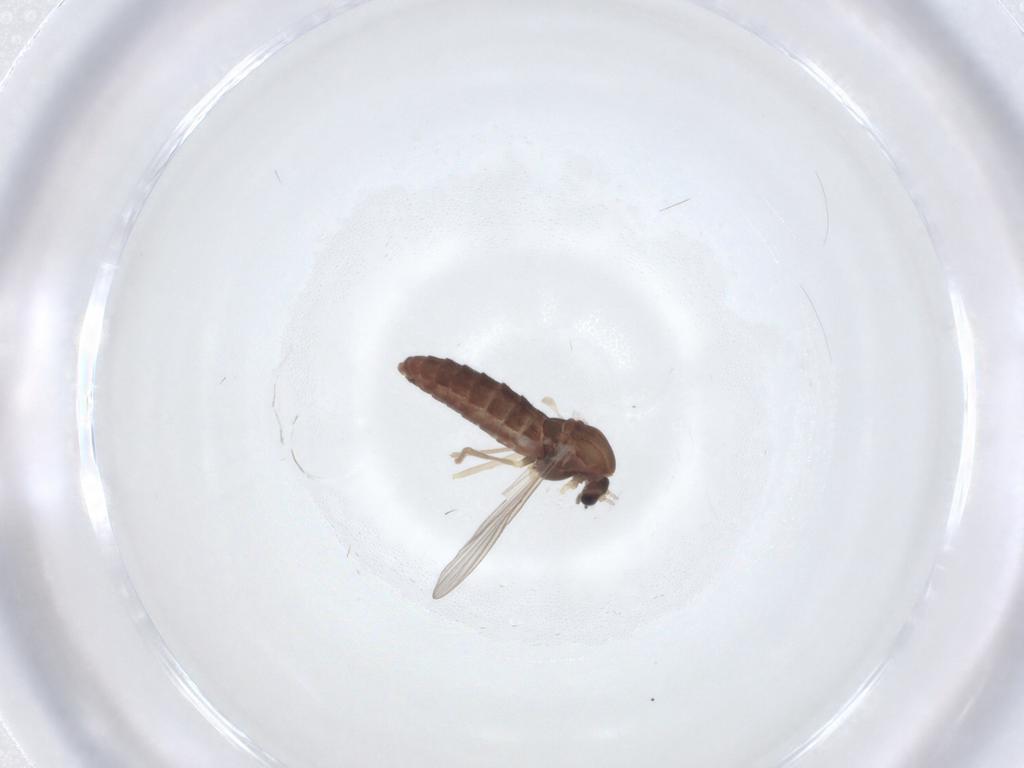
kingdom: Animalia
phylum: Arthropoda
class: Insecta
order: Diptera
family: Chironomidae
